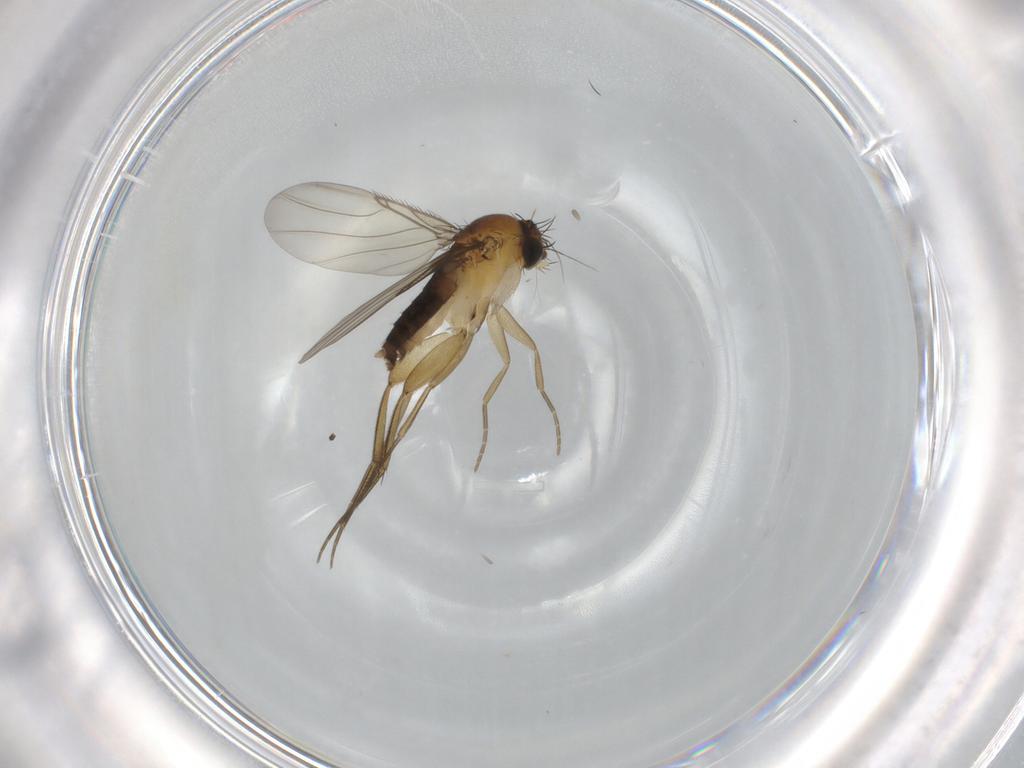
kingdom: Animalia
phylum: Arthropoda
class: Insecta
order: Diptera
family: Phoridae
